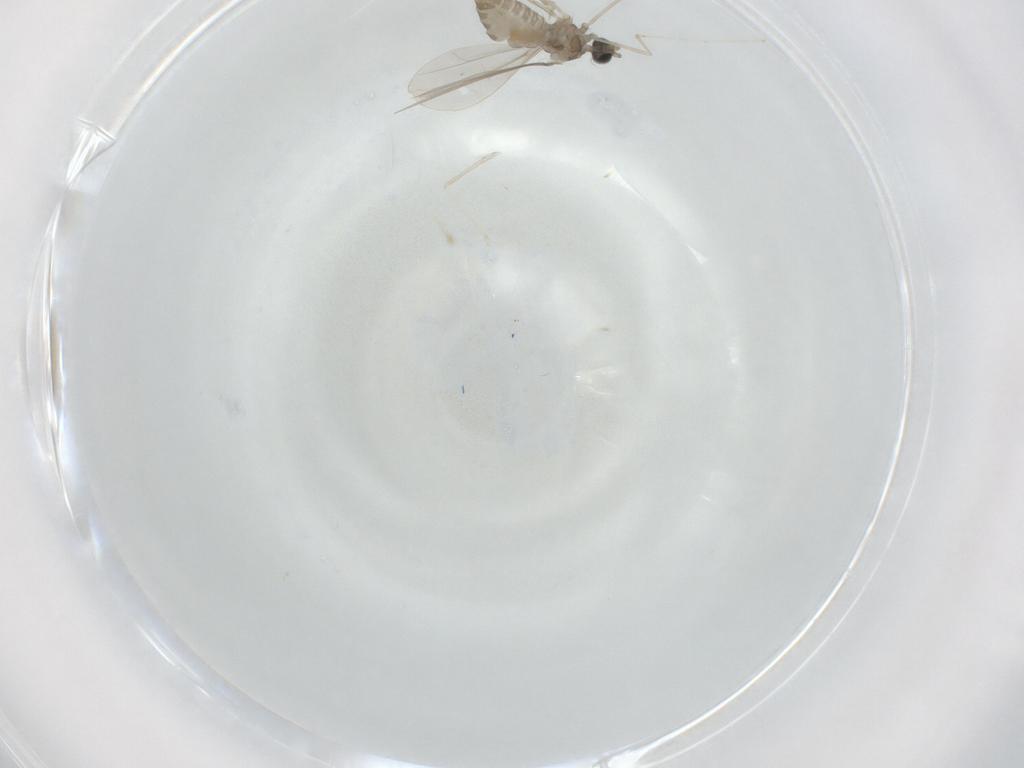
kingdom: Animalia
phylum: Arthropoda
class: Insecta
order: Diptera
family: Cecidomyiidae
